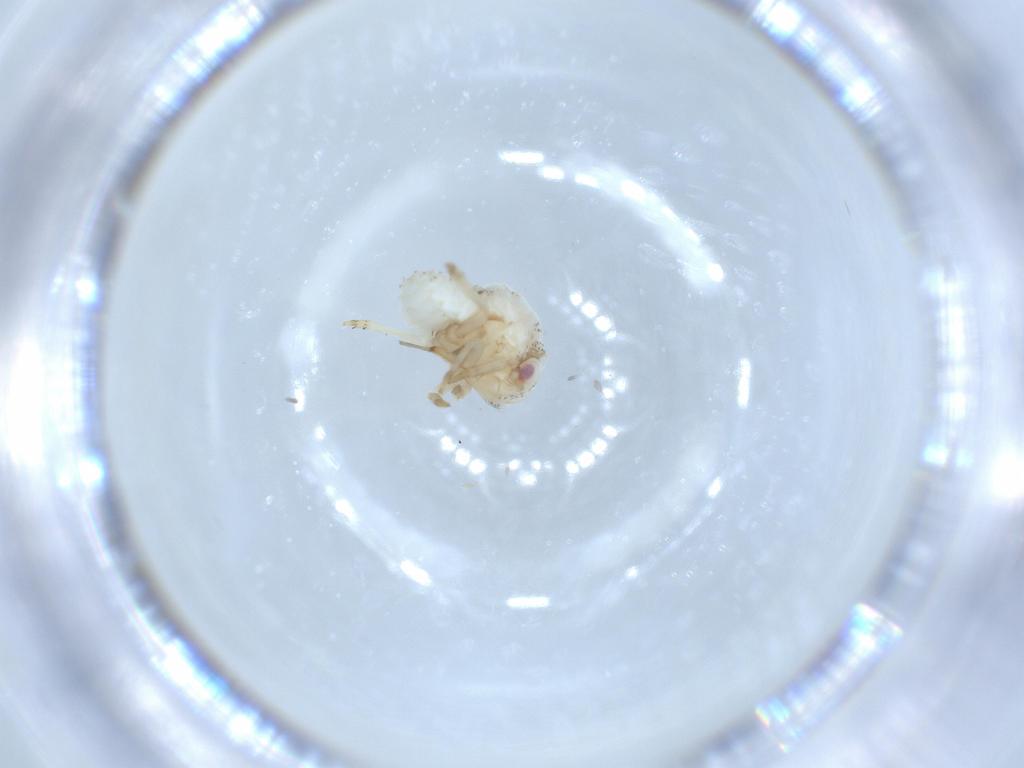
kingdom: Animalia
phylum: Arthropoda
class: Insecta
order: Hemiptera
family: Acanaloniidae
